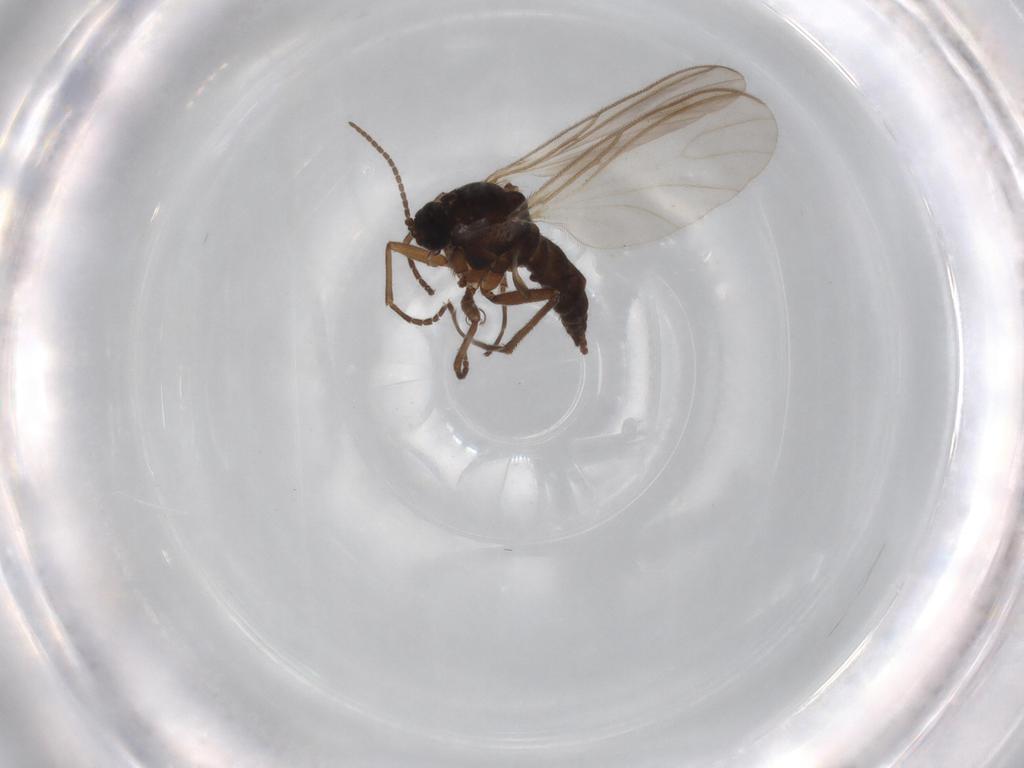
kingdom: Animalia
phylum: Arthropoda
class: Insecta
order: Diptera
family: Sciaridae
